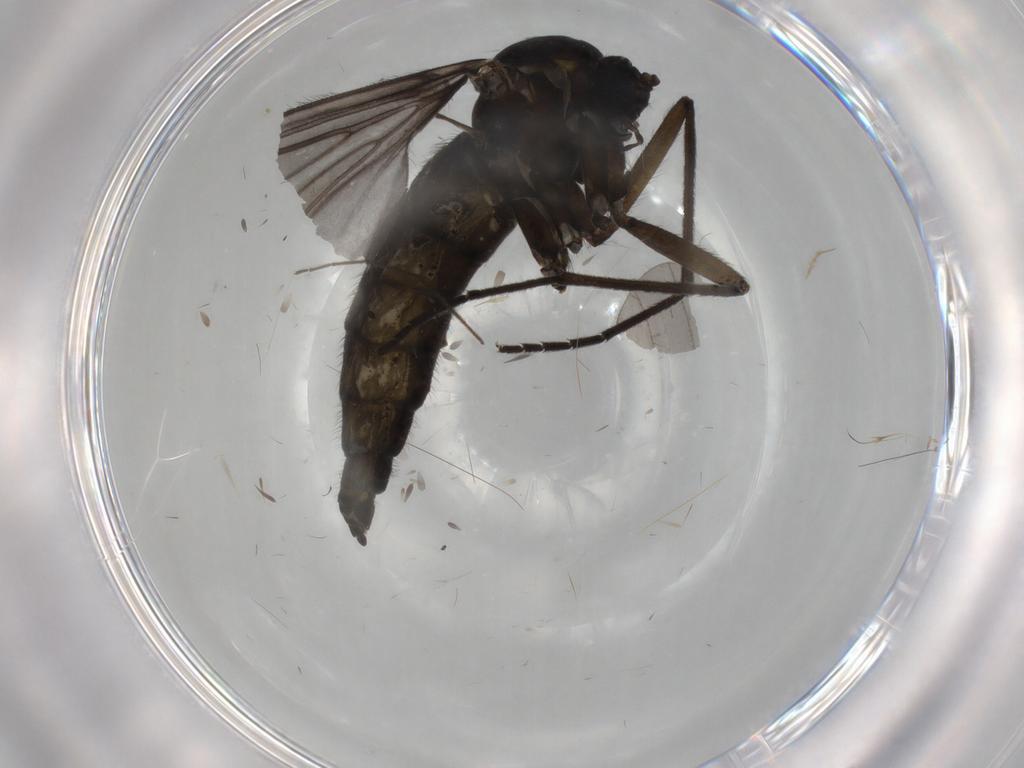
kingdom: Animalia
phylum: Arthropoda
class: Insecta
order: Diptera
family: Sciaridae
